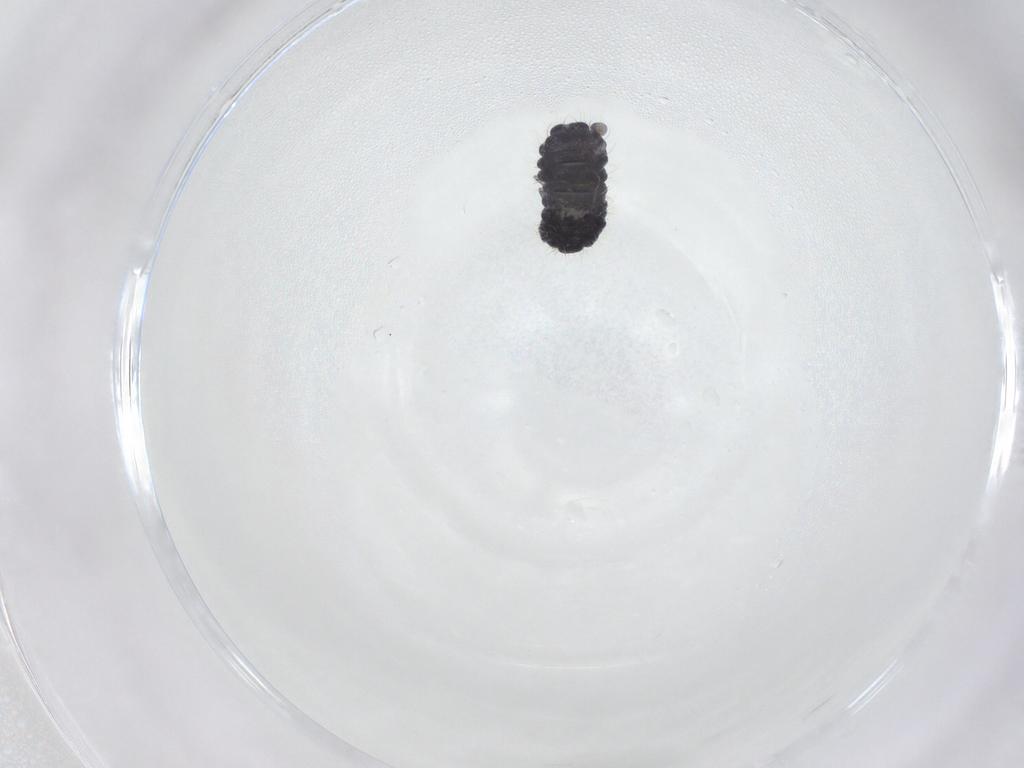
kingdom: Animalia
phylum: Arthropoda
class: Collembola
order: Poduromorpha
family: Neanuridae
